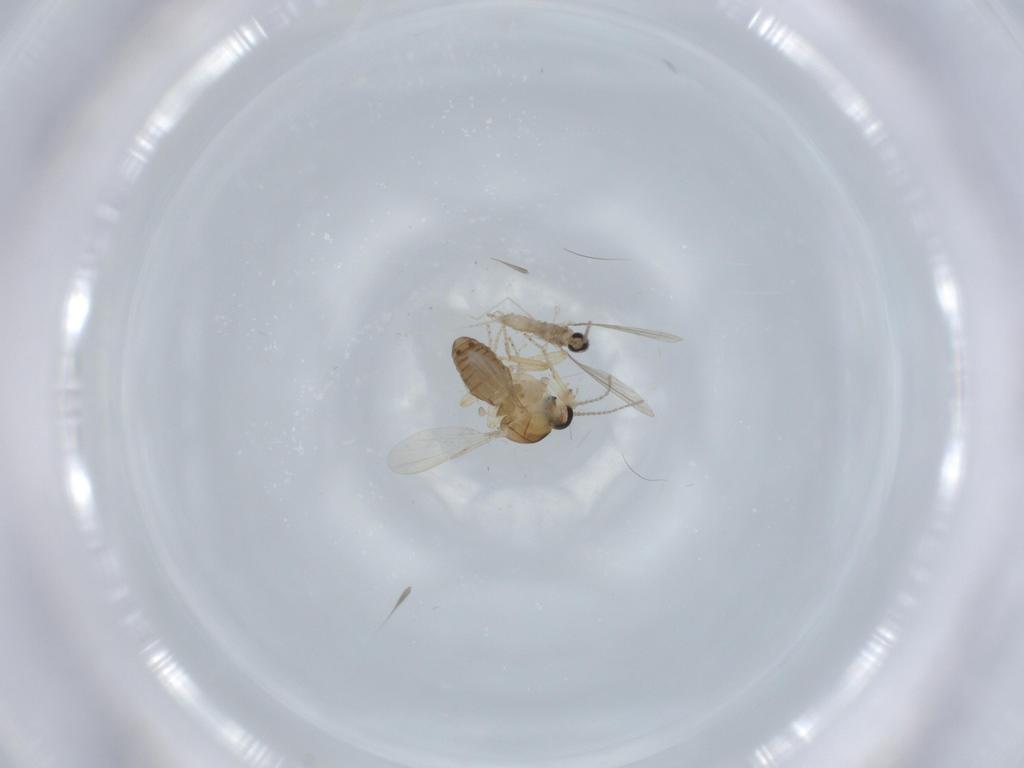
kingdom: Animalia
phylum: Arthropoda
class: Insecta
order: Diptera
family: Ceratopogonidae
